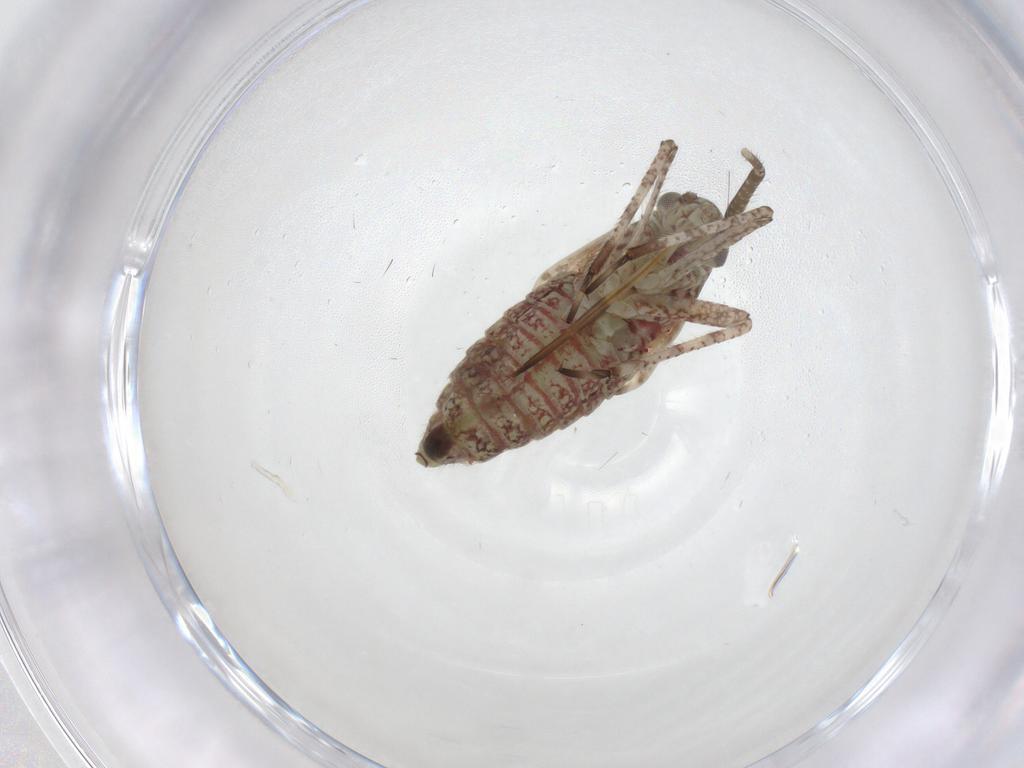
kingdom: Animalia
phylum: Arthropoda
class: Insecta
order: Hemiptera
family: Miridae
